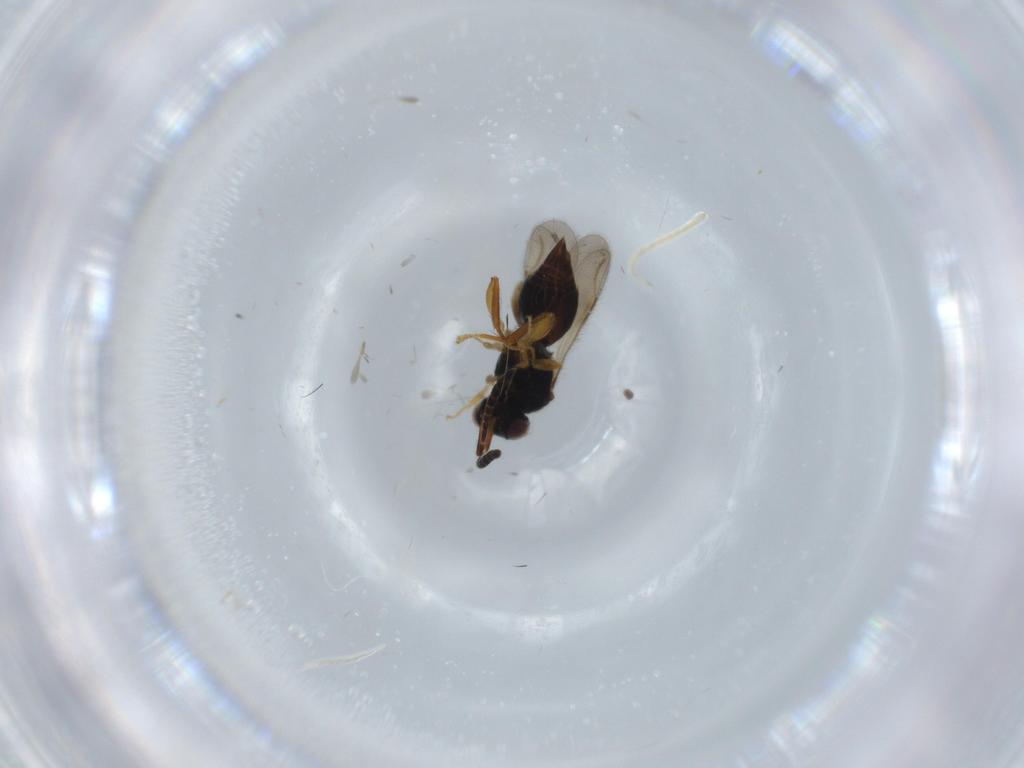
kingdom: Animalia
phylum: Arthropoda
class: Insecta
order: Hymenoptera
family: Ceraphronidae
